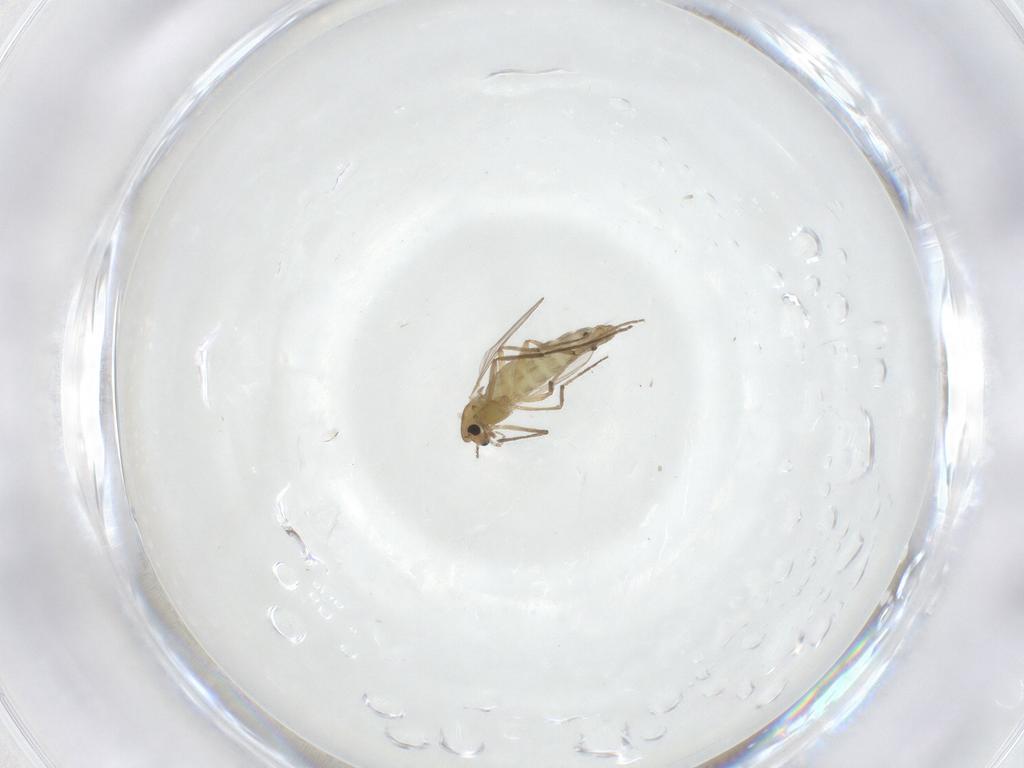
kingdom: Animalia
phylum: Arthropoda
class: Insecta
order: Diptera
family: Chironomidae
